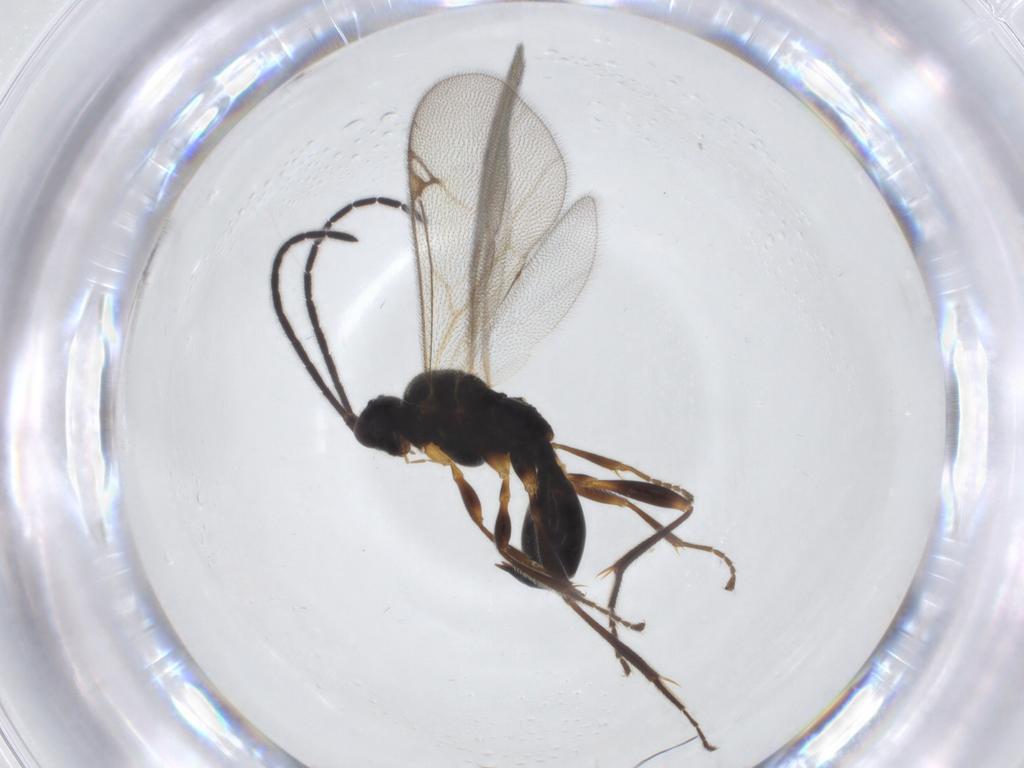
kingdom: Animalia
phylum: Arthropoda
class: Insecta
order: Hymenoptera
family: Proctotrupidae
